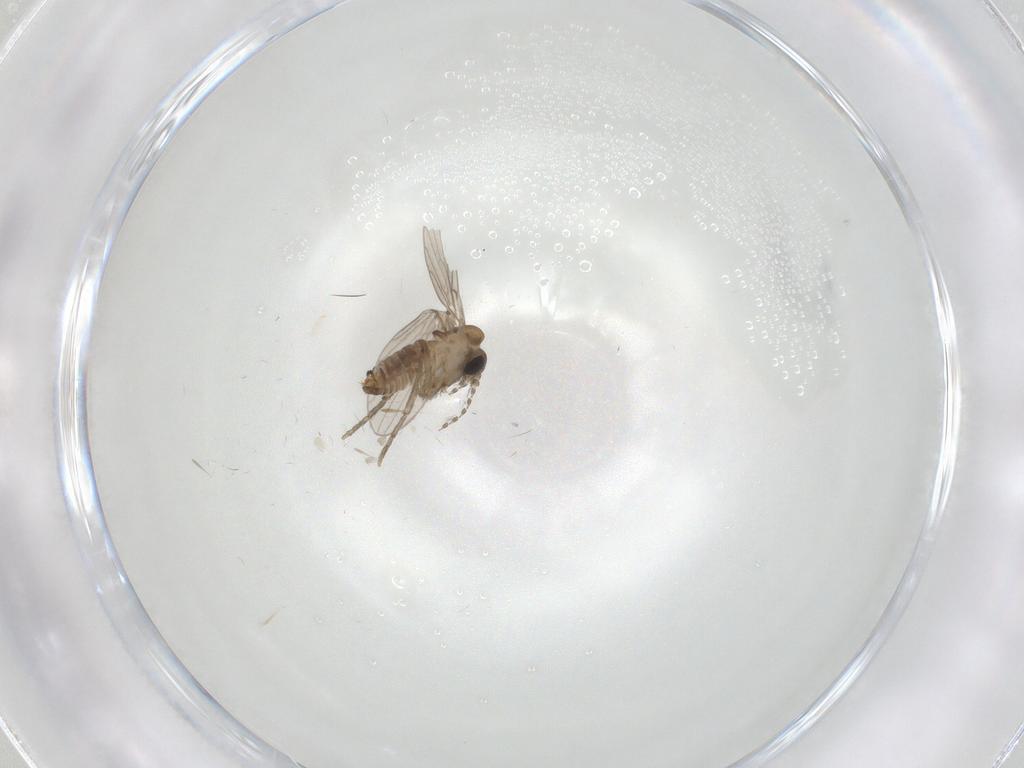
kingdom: Animalia
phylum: Arthropoda
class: Insecta
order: Diptera
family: Psychodidae
